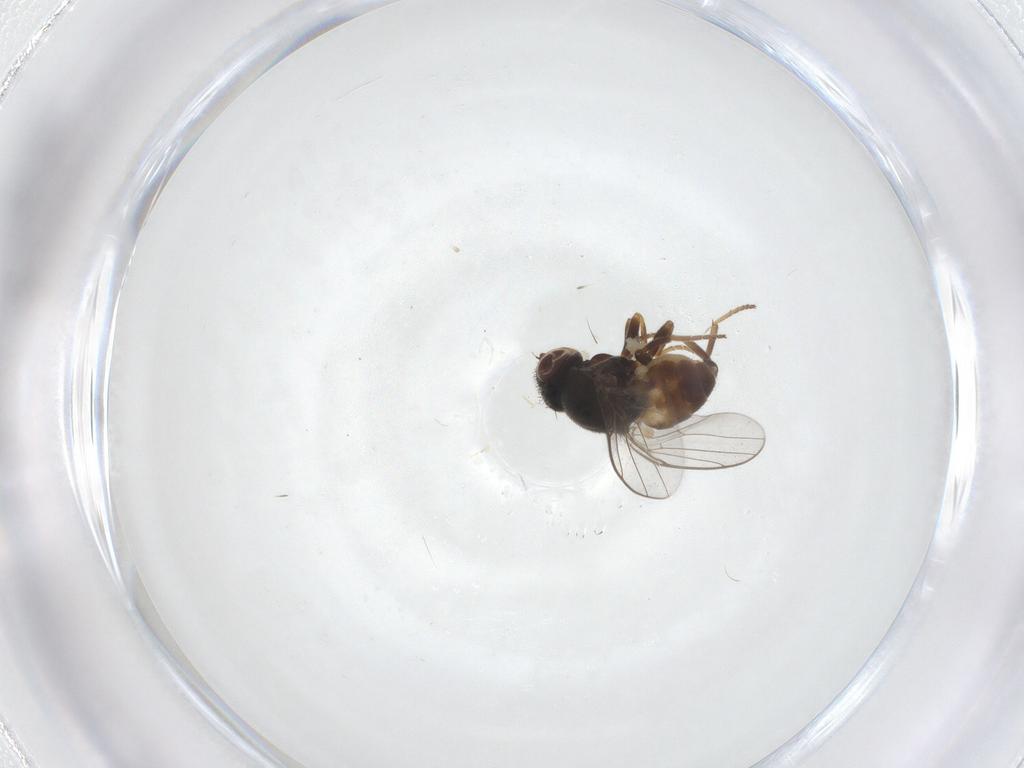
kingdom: Animalia
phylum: Arthropoda
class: Insecta
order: Diptera
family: Chloropidae
